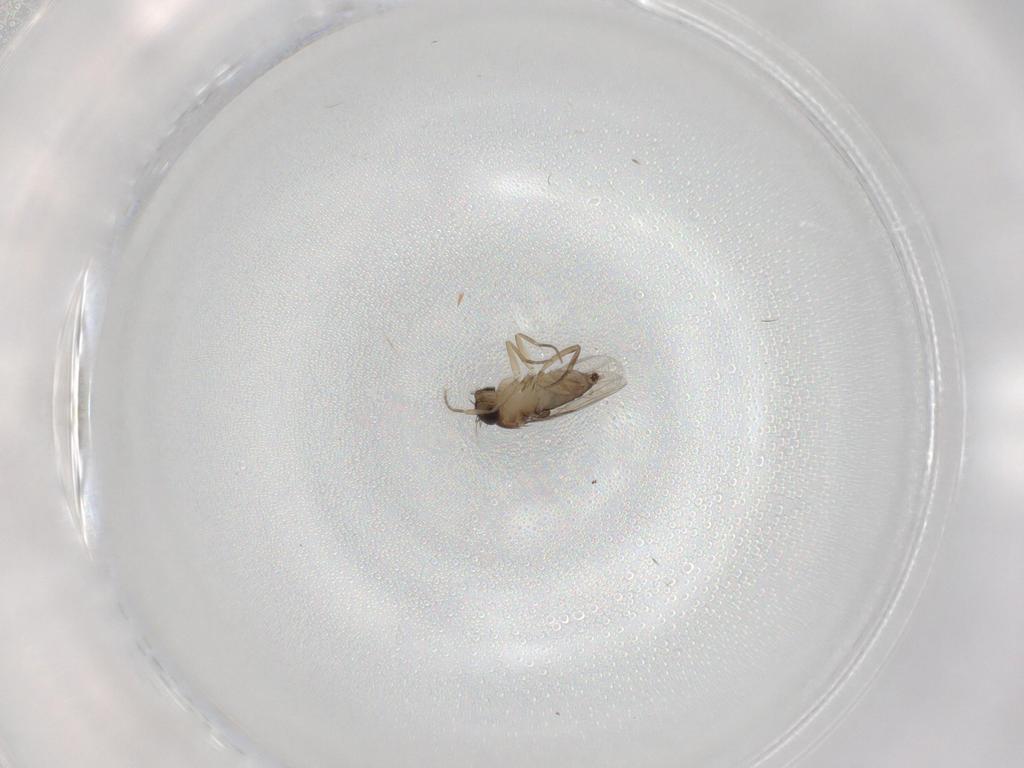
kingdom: Animalia
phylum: Arthropoda
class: Insecta
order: Diptera
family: Phoridae
